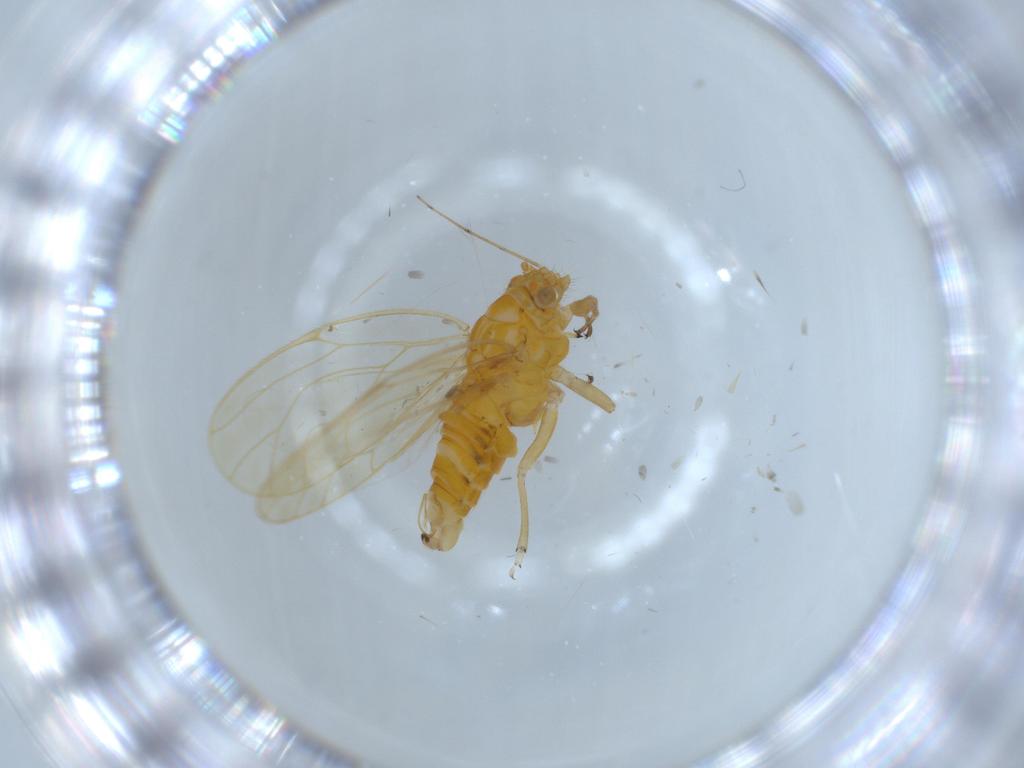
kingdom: Animalia
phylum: Arthropoda
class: Insecta
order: Hemiptera
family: Psyllidae
